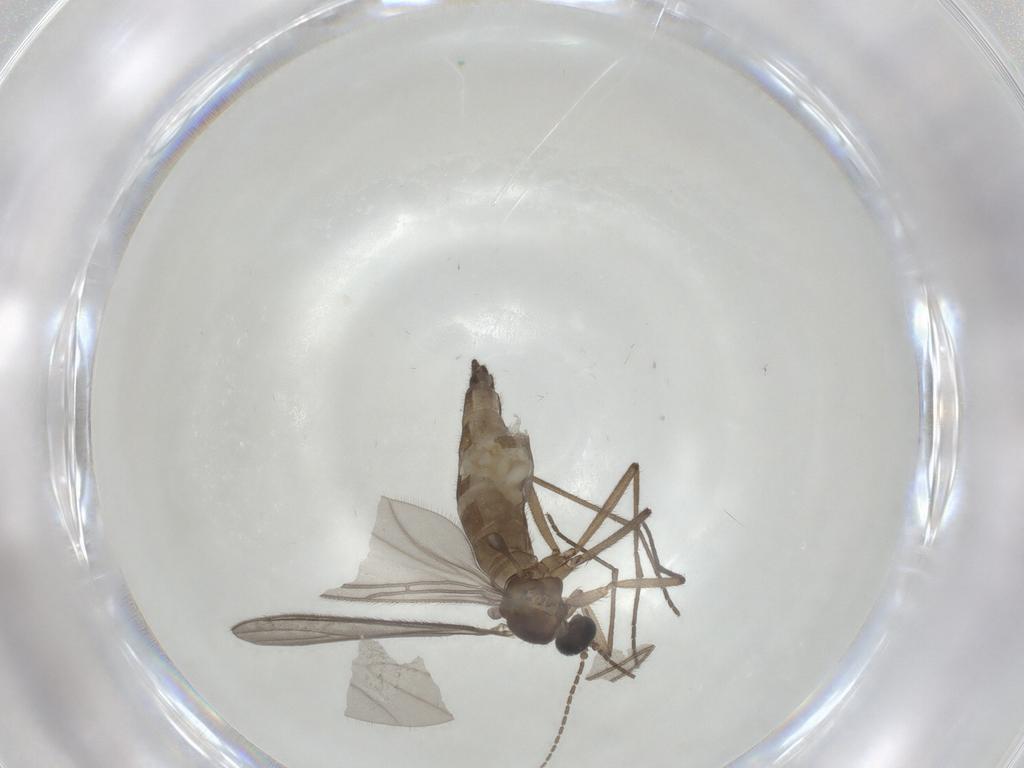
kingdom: Animalia
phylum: Arthropoda
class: Insecta
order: Diptera
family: Sciaridae
